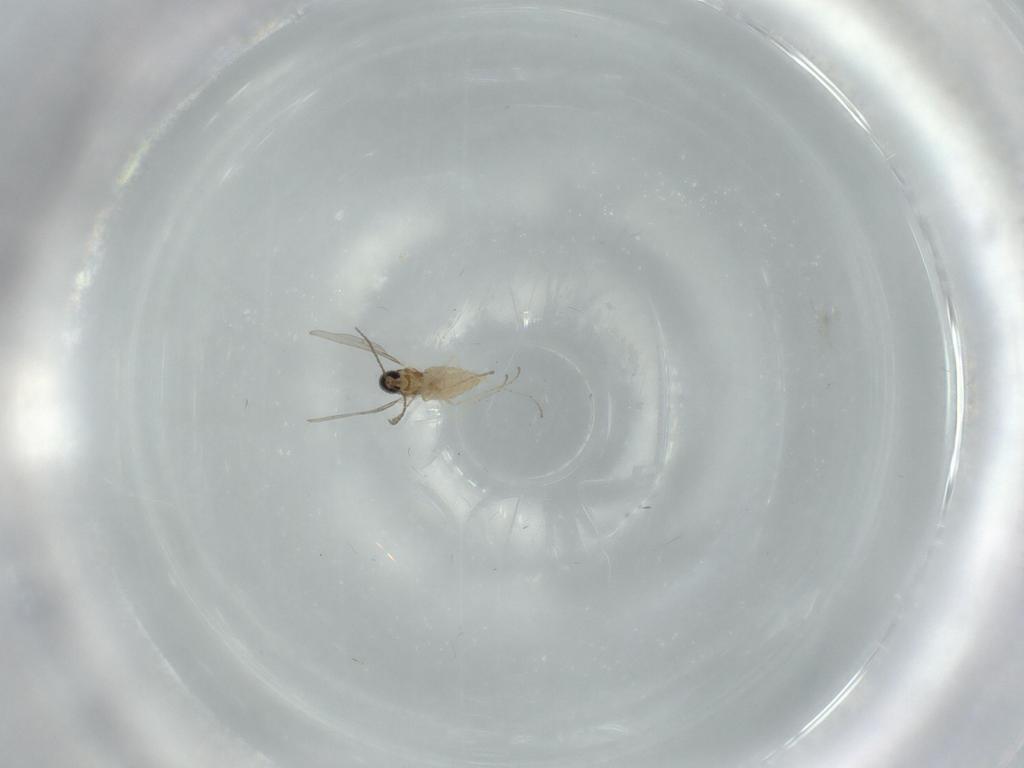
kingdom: Animalia
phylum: Arthropoda
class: Insecta
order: Diptera
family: Cecidomyiidae
